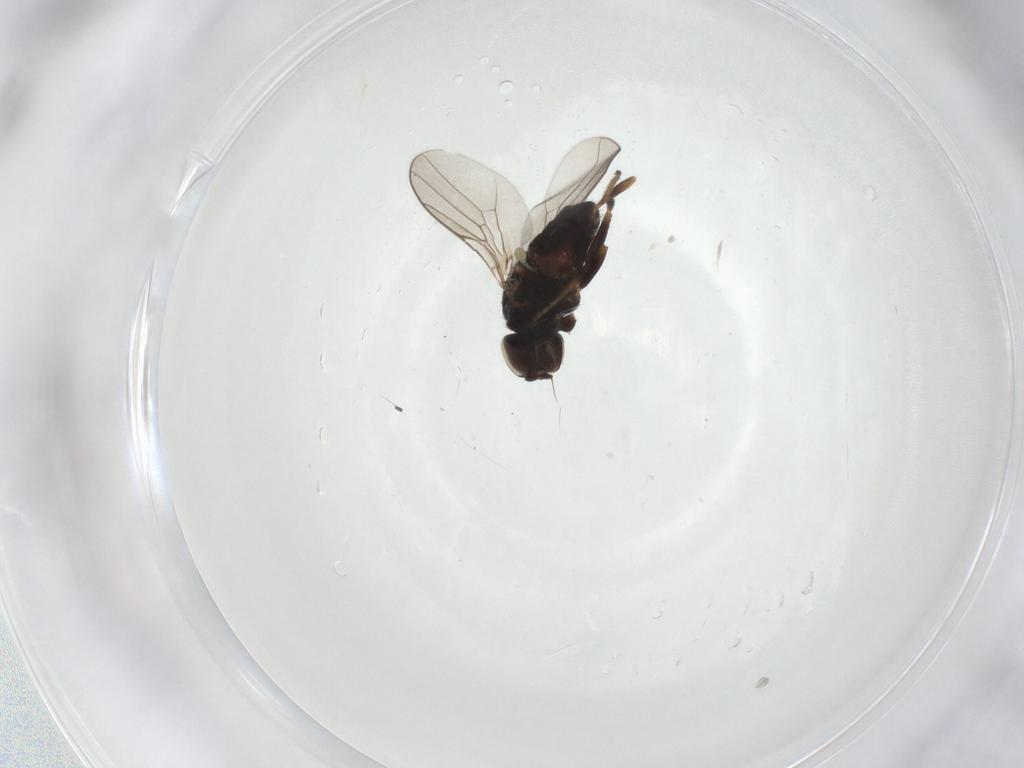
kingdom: Animalia
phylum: Arthropoda
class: Insecta
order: Diptera
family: Chloropidae
